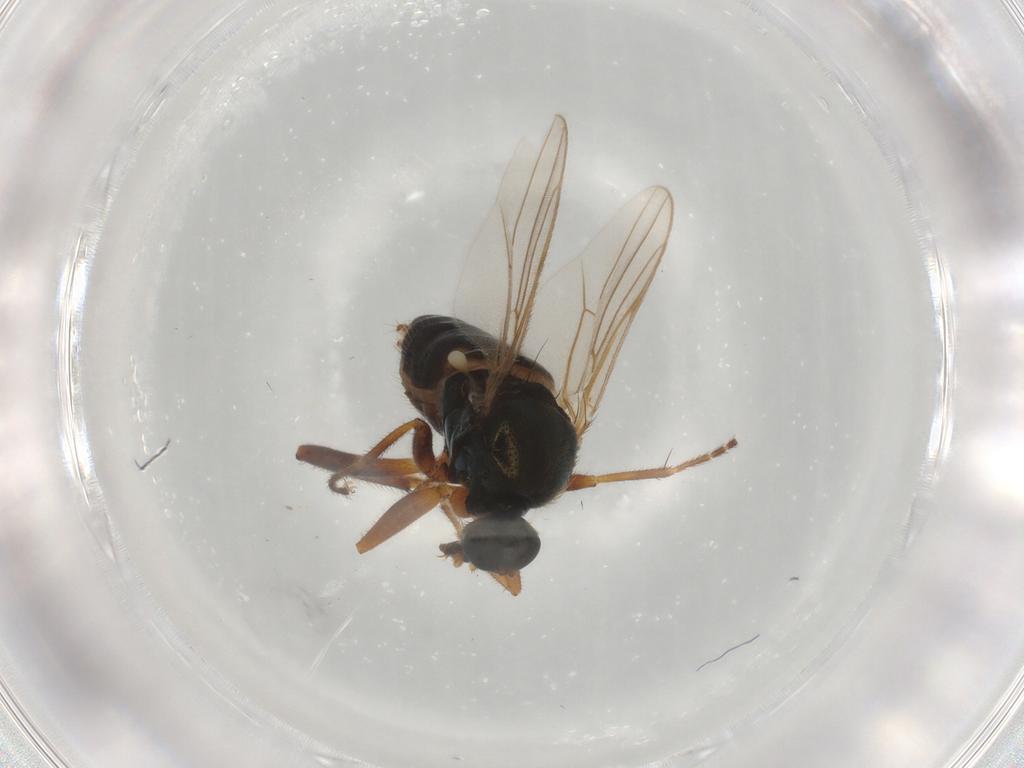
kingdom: Animalia
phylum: Arthropoda
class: Insecta
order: Diptera
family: Hybotidae
